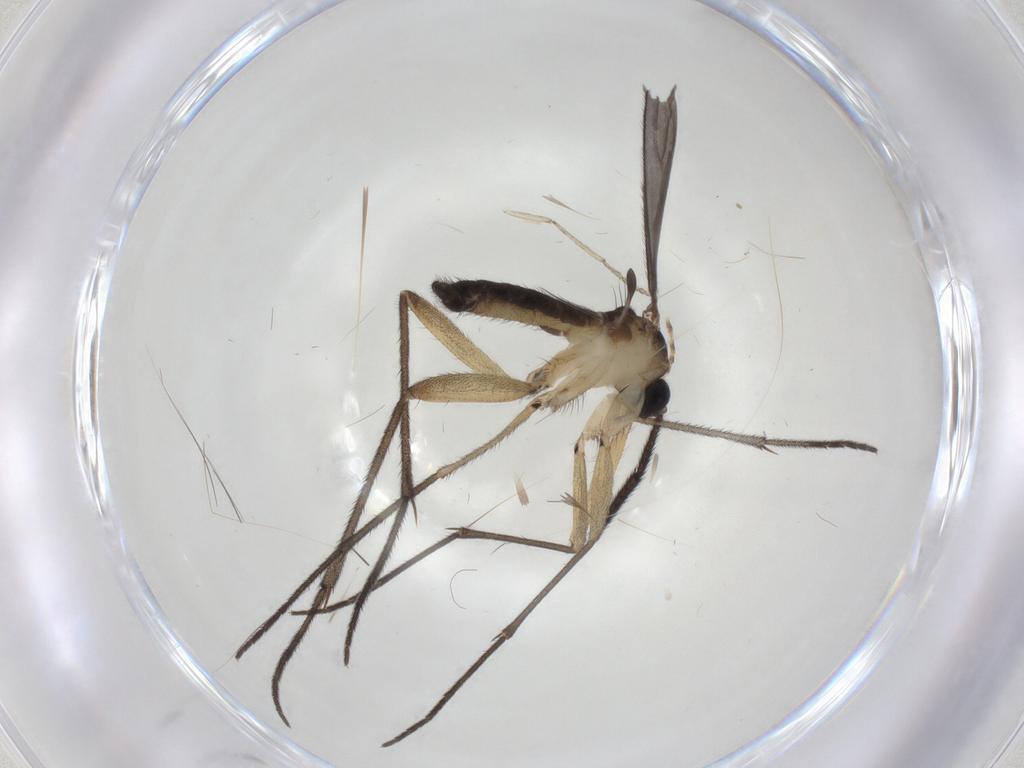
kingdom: Animalia
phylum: Arthropoda
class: Insecta
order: Diptera
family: Sciaridae
